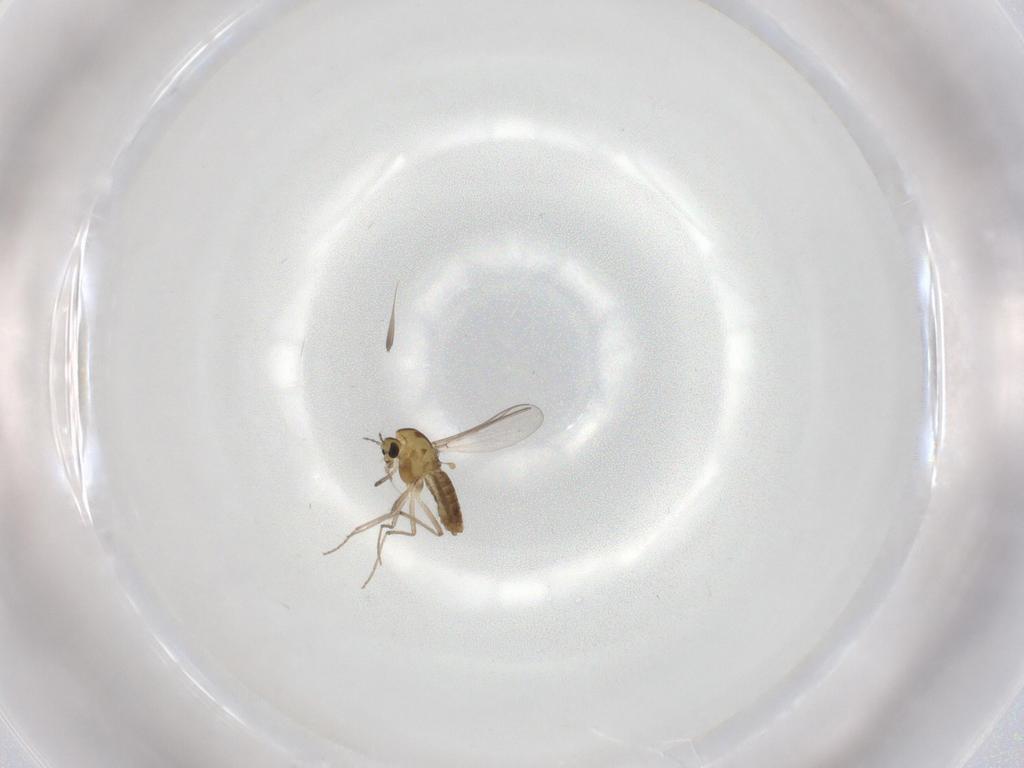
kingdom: Animalia
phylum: Arthropoda
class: Insecta
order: Diptera
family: Chironomidae
